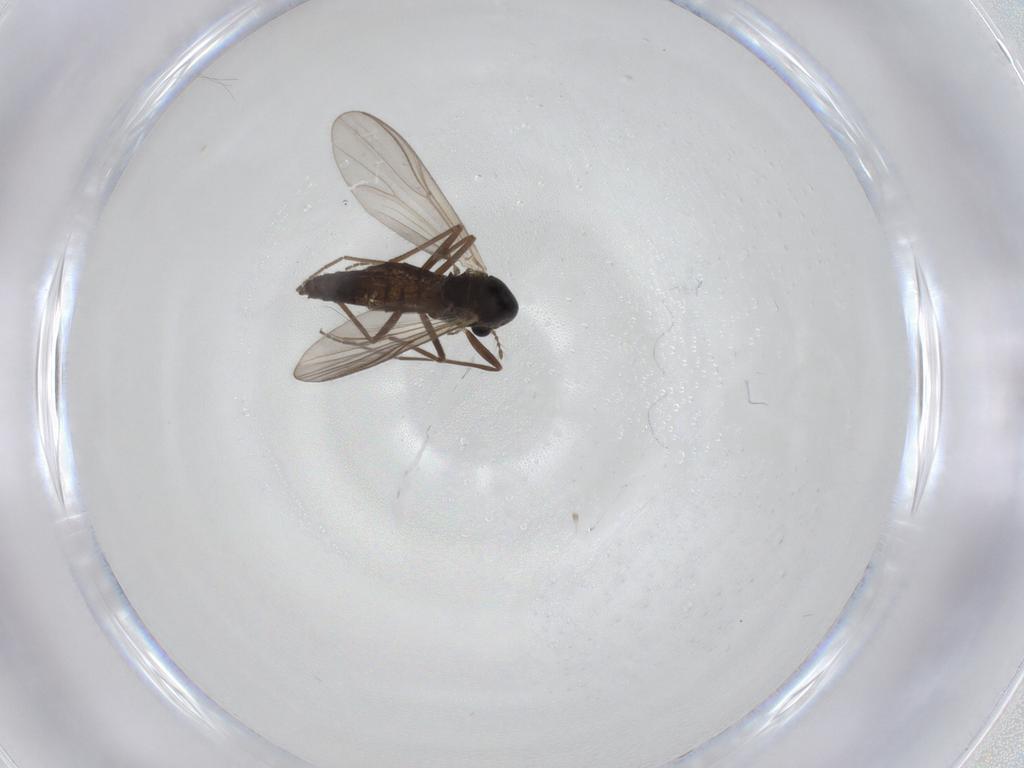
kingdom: Animalia
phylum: Arthropoda
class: Insecta
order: Diptera
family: Chironomidae
